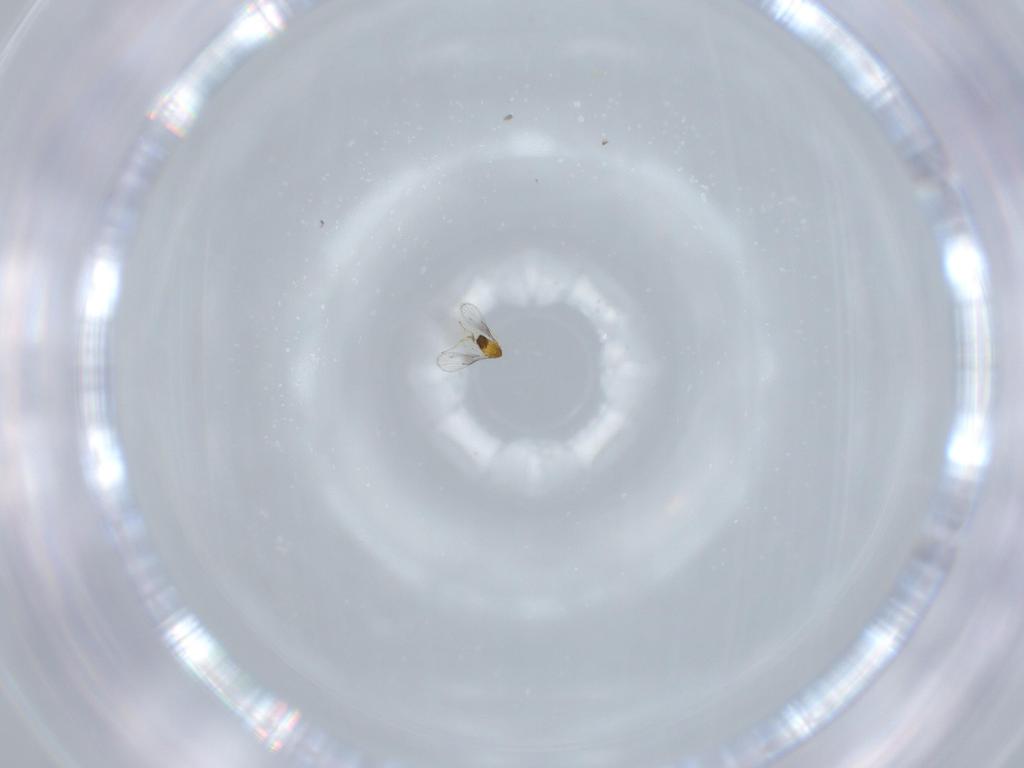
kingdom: Animalia
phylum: Arthropoda
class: Insecta
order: Hymenoptera
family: Trichogrammatidae
